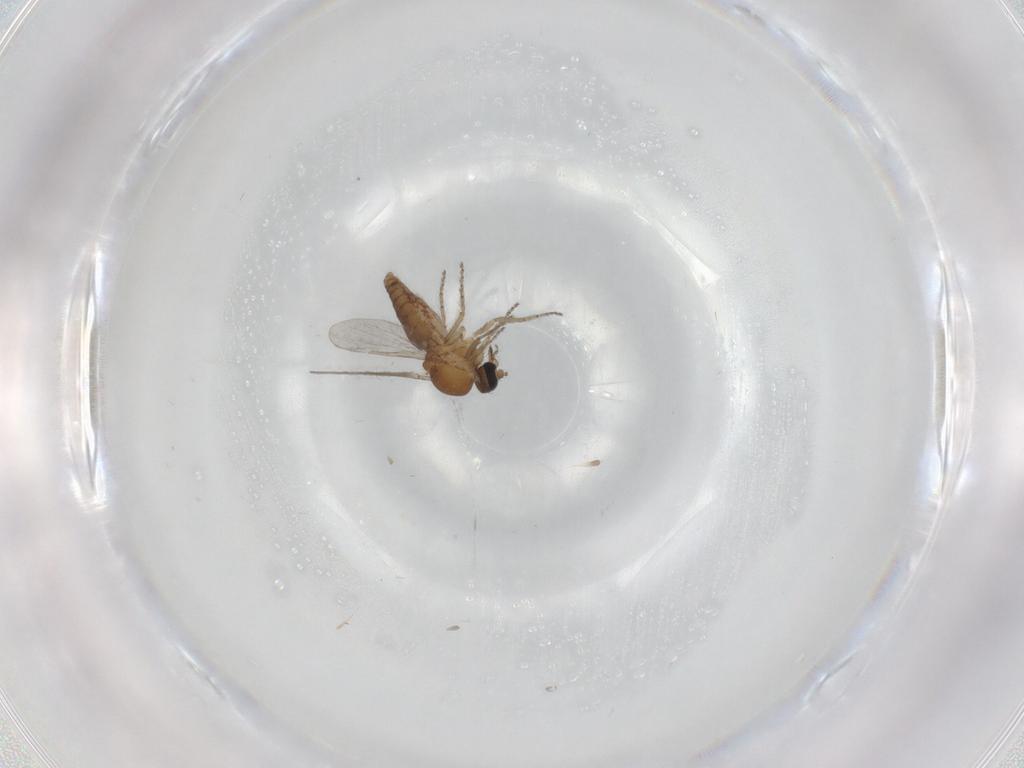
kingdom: Animalia
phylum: Arthropoda
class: Insecta
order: Diptera
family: Ceratopogonidae
